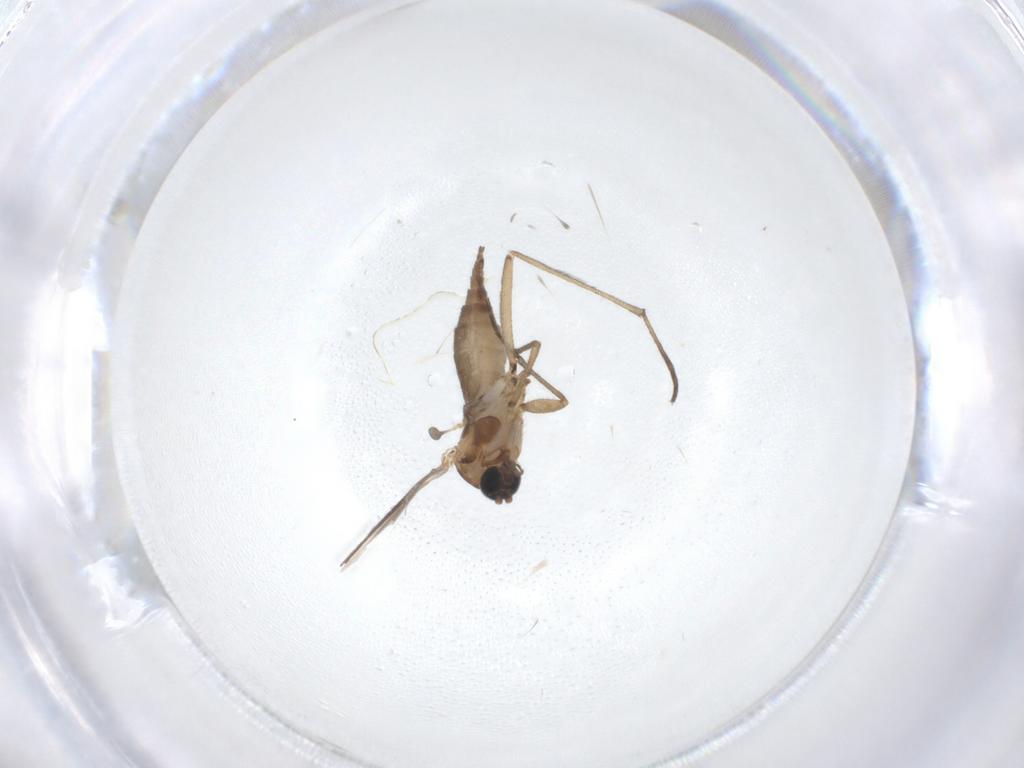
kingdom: Animalia
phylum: Arthropoda
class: Insecta
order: Diptera
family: Sciaridae
